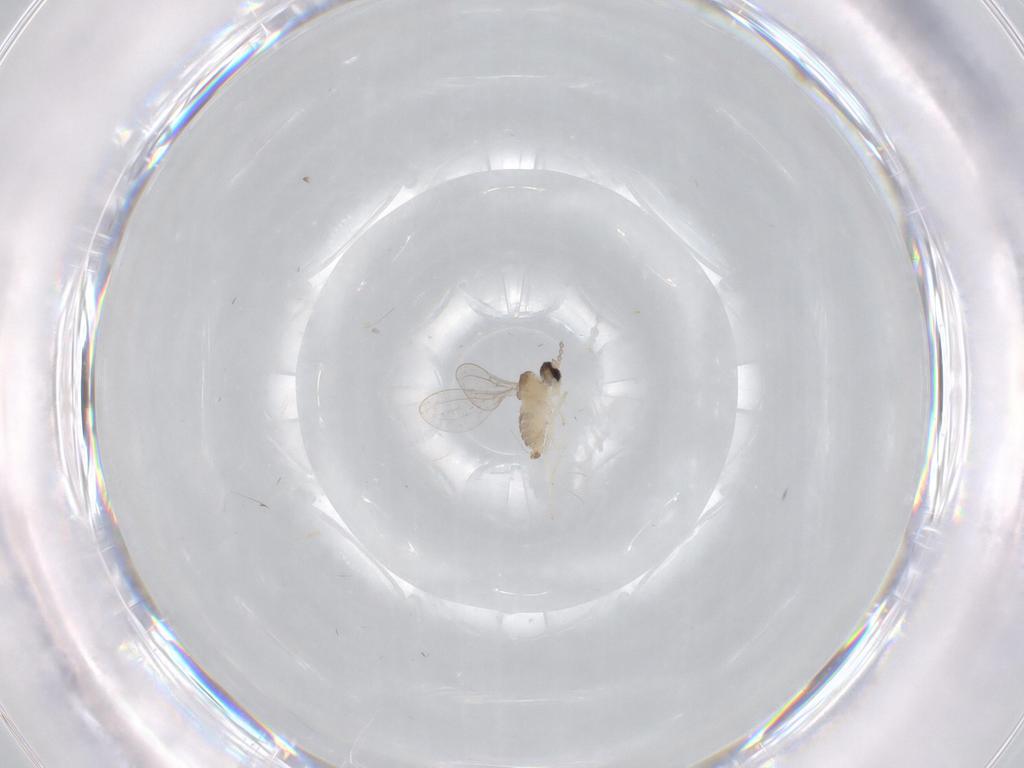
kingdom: Animalia
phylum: Arthropoda
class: Insecta
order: Diptera
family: Cecidomyiidae
